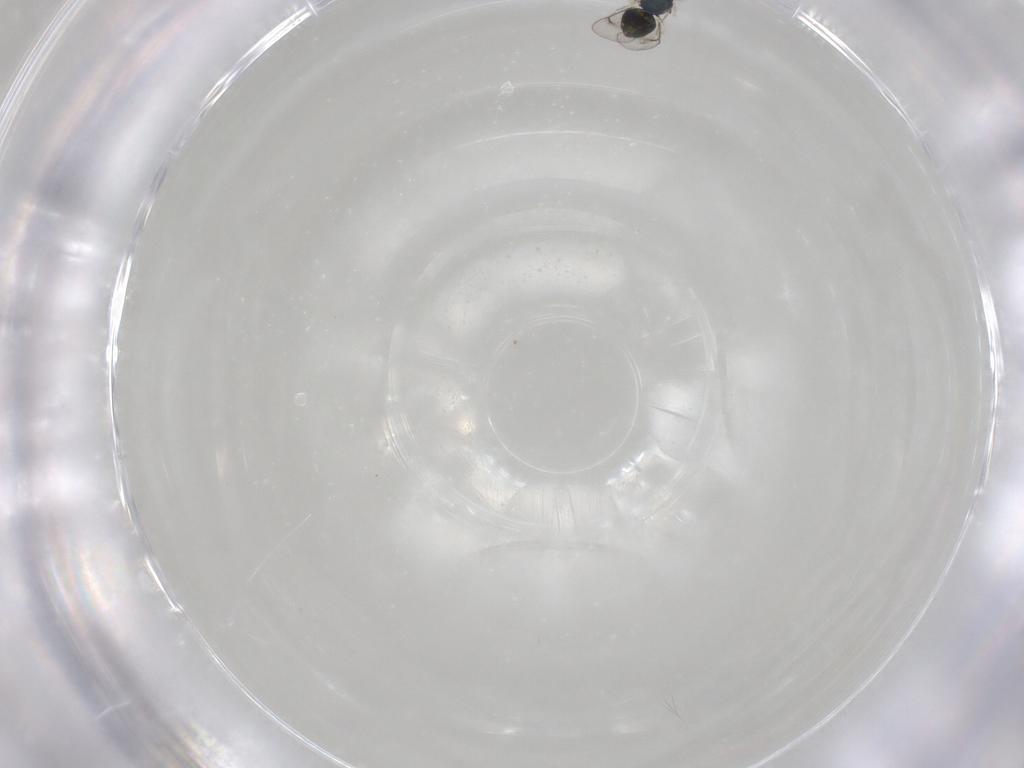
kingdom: Animalia
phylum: Arthropoda
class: Insecta
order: Hymenoptera
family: Eulophidae
